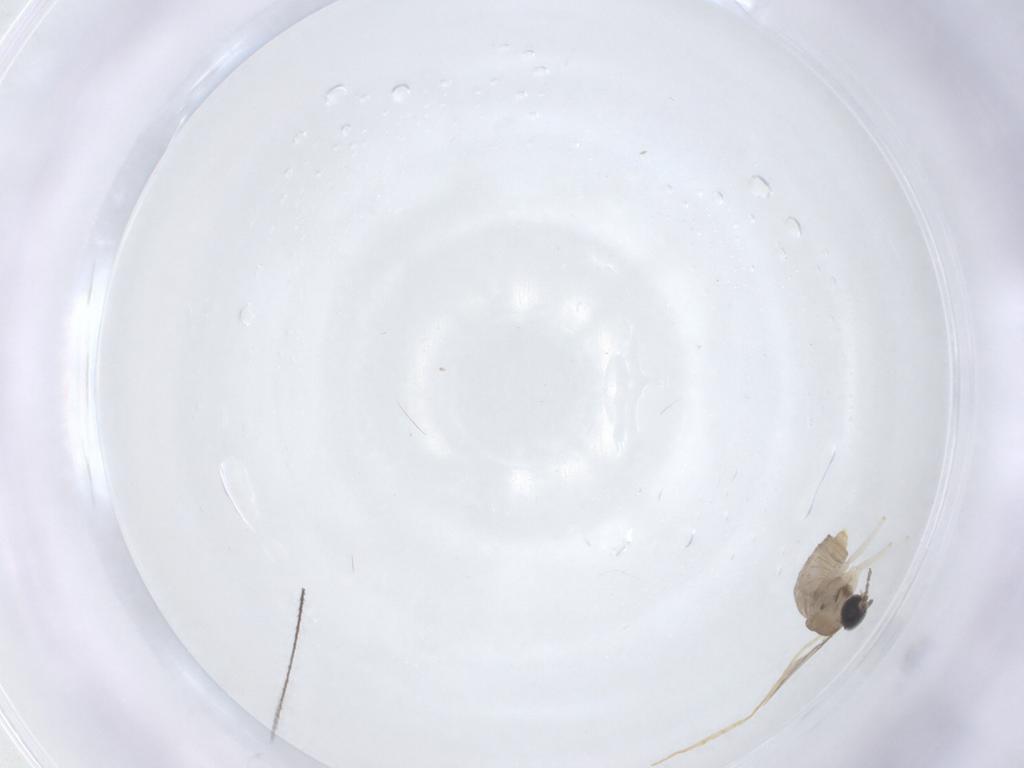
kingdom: Animalia
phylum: Arthropoda
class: Insecta
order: Diptera
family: Cecidomyiidae
